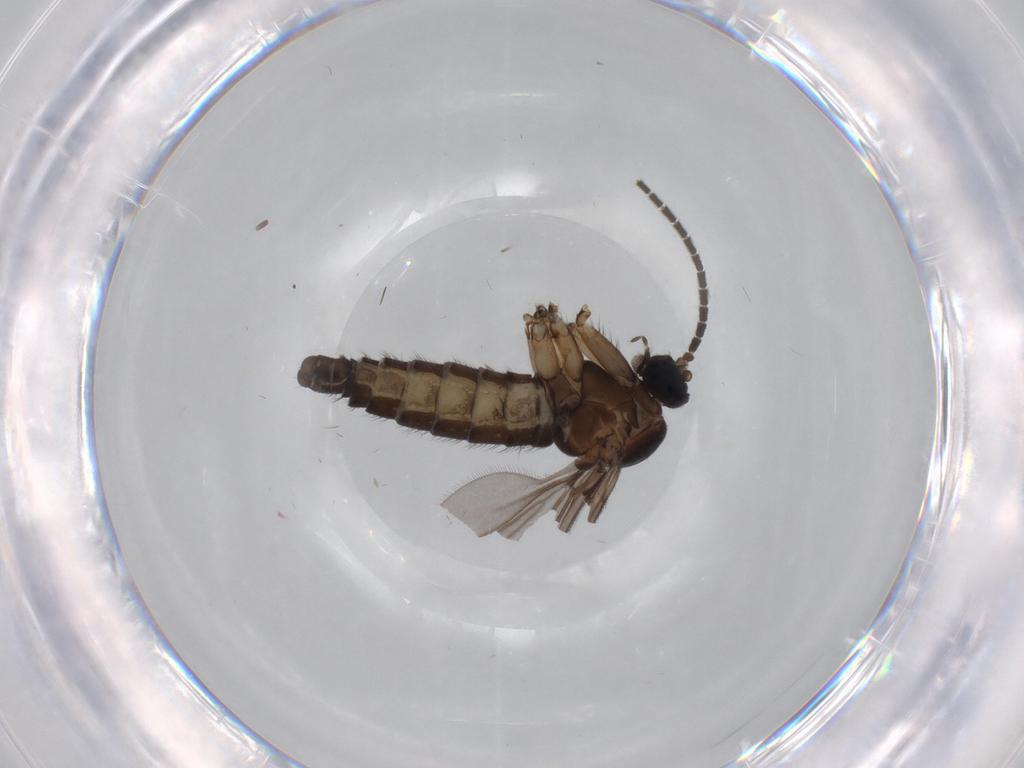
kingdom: Animalia
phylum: Arthropoda
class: Insecta
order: Diptera
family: Sciaridae
